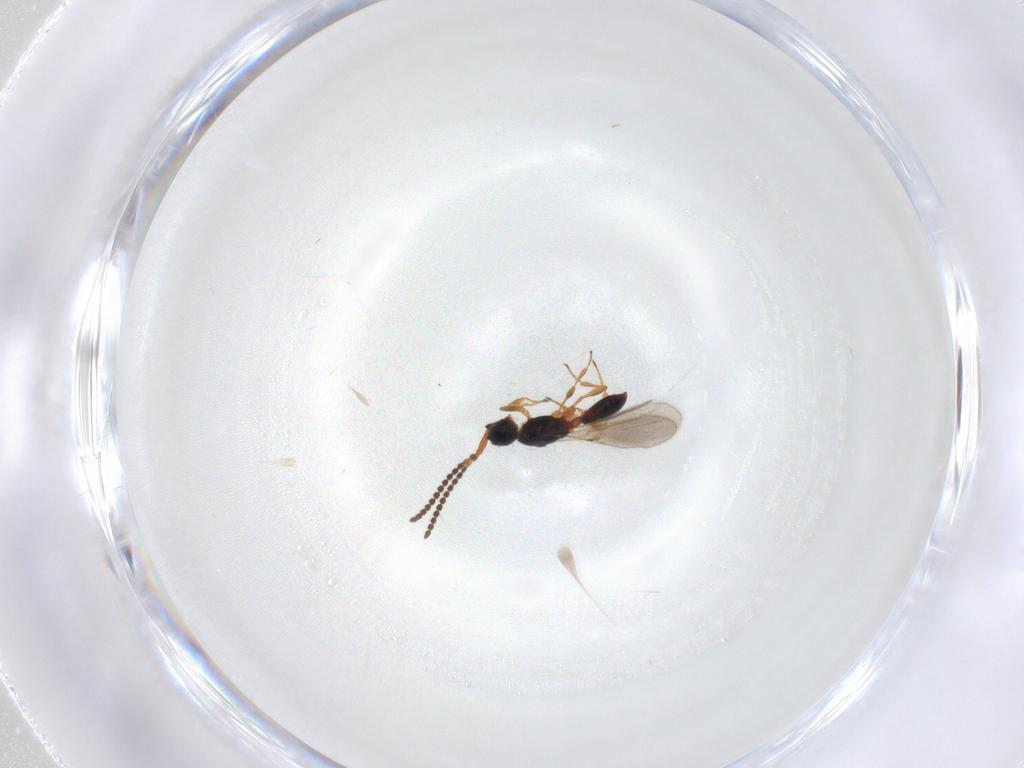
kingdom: Animalia
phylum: Arthropoda
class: Insecta
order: Hymenoptera
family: Diapriidae
